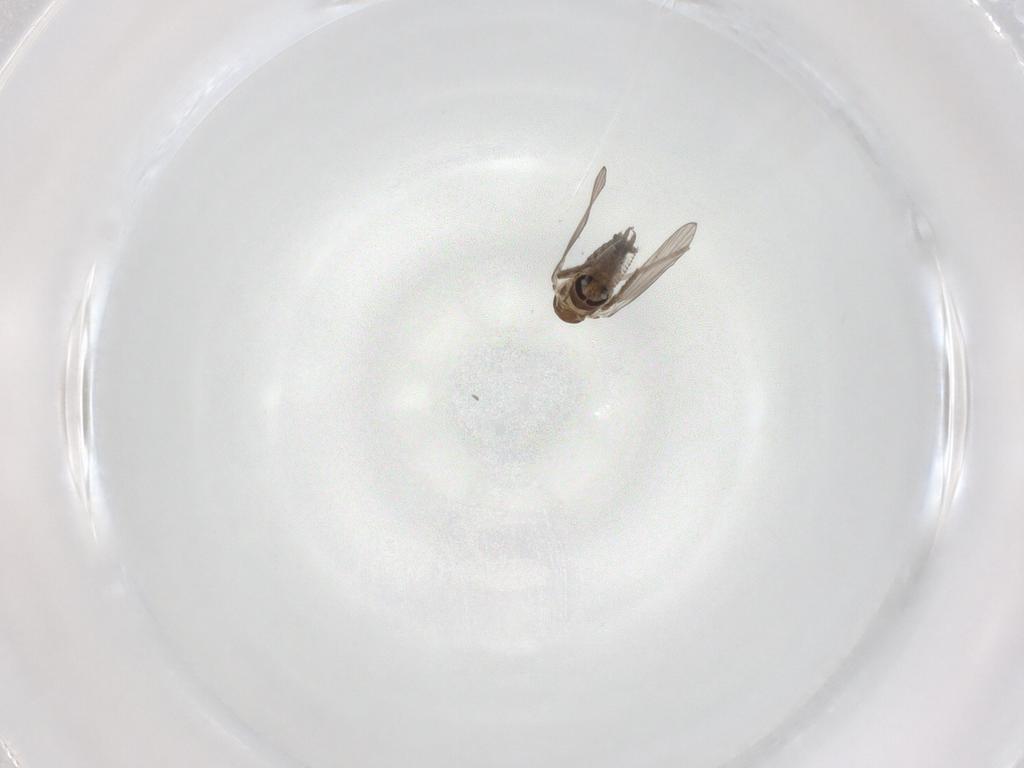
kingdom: Animalia
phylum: Arthropoda
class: Insecta
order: Diptera
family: Psychodidae
